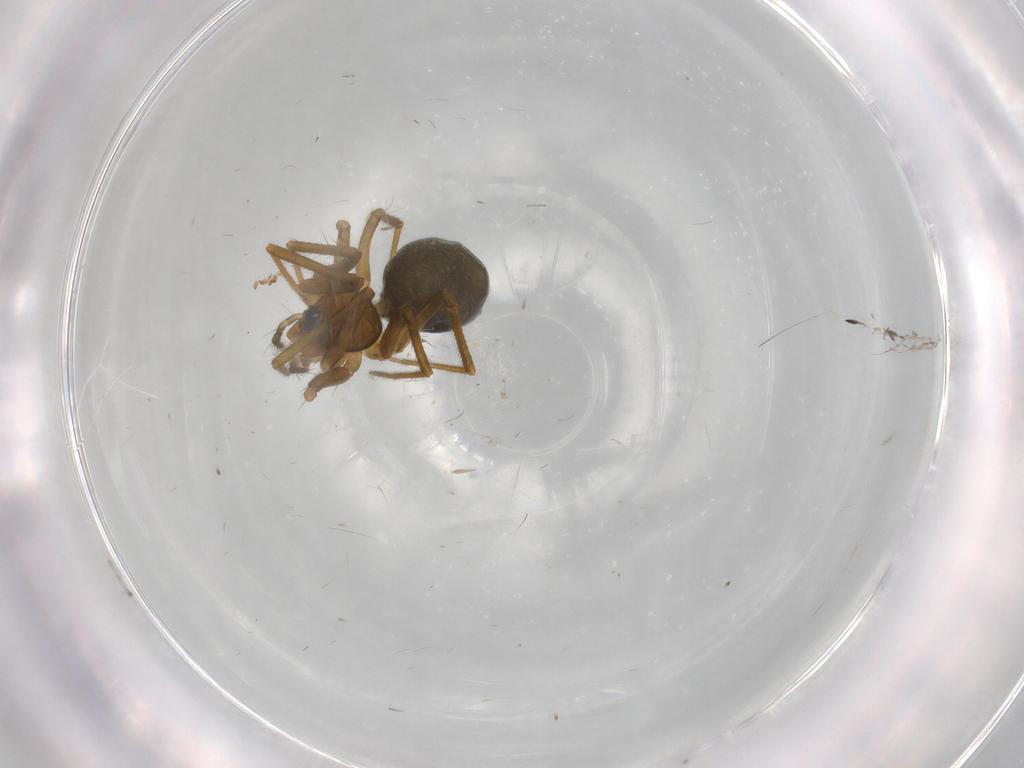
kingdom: Animalia
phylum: Arthropoda
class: Arachnida
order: Araneae
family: Linyphiidae
